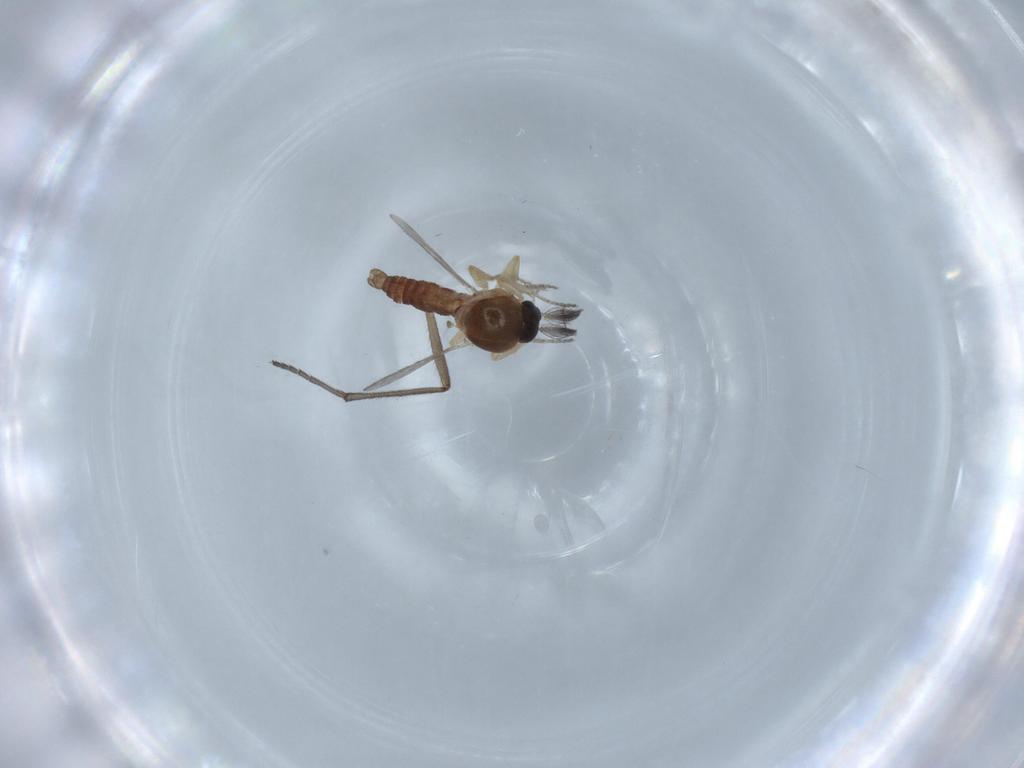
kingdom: Animalia
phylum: Arthropoda
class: Insecta
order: Diptera
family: Ceratopogonidae
